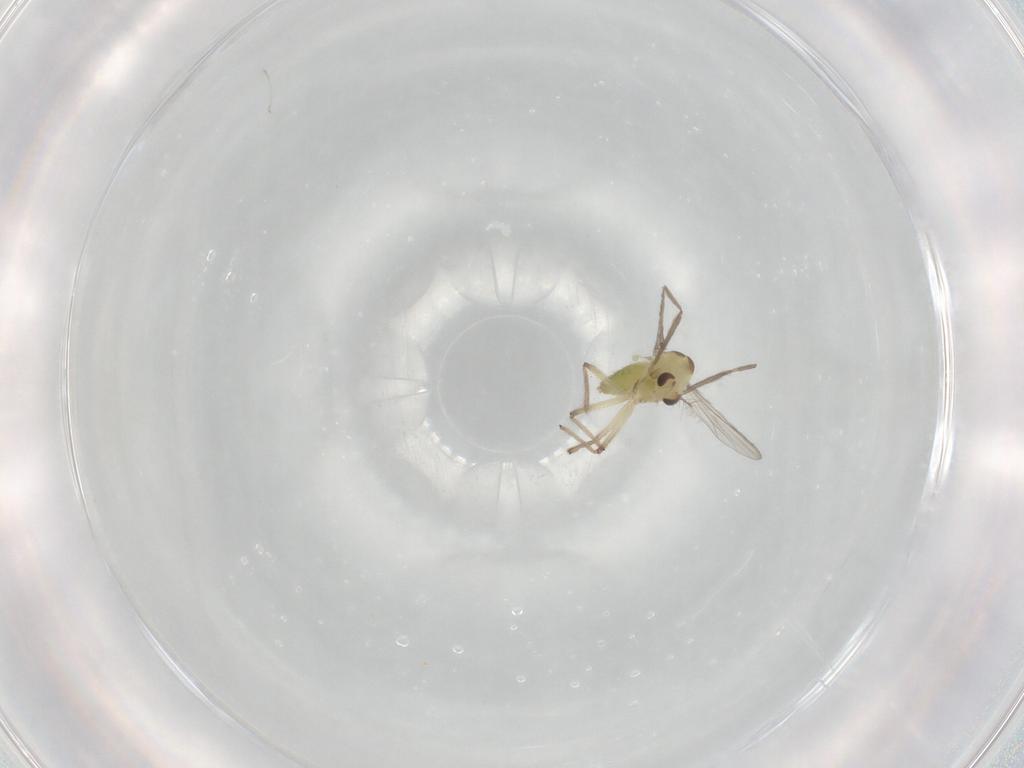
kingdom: Animalia
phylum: Arthropoda
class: Insecta
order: Diptera
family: Chironomidae
